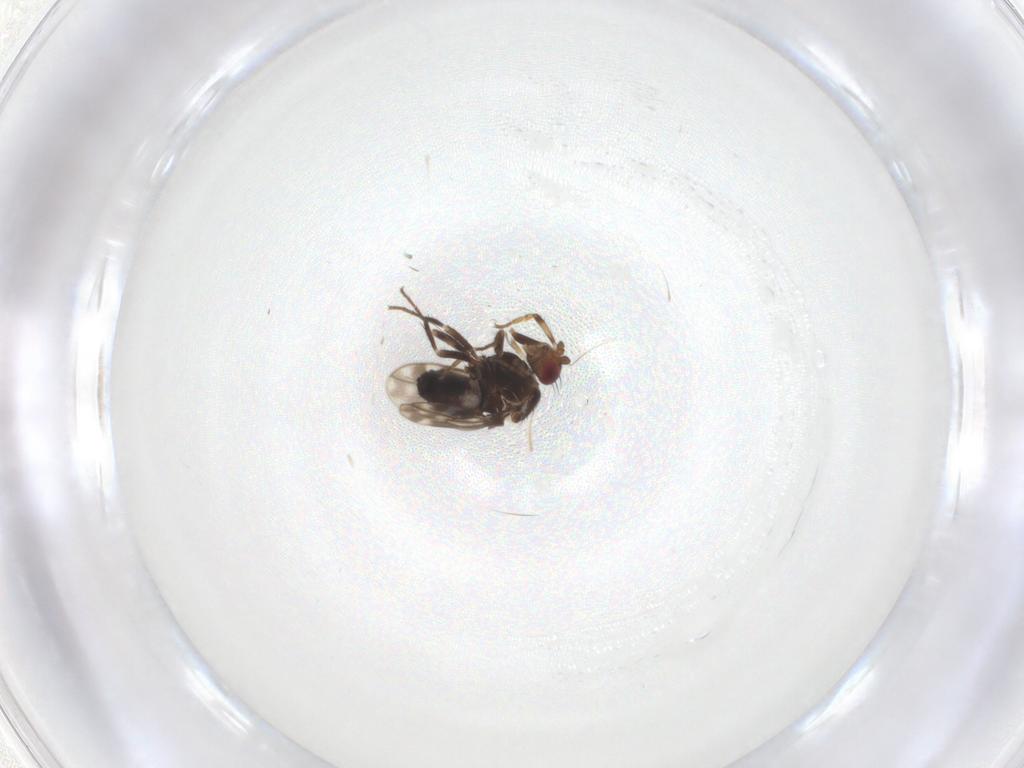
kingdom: Animalia
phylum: Arthropoda
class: Insecta
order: Diptera
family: Sphaeroceridae
